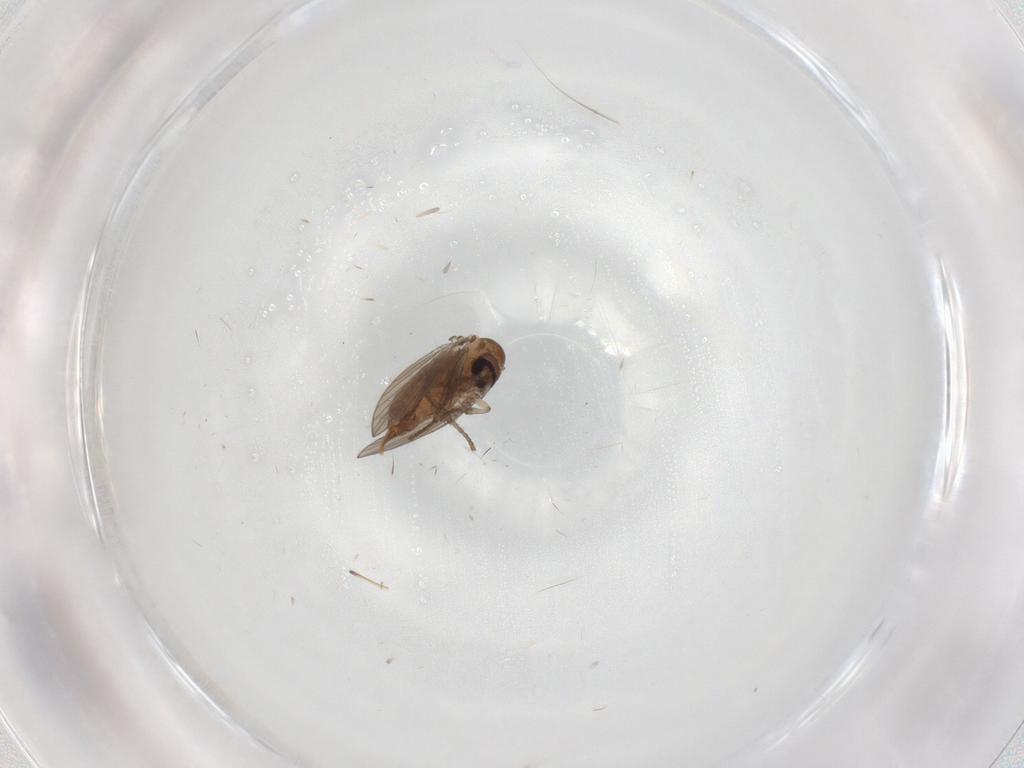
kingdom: Animalia
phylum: Arthropoda
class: Insecta
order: Diptera
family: Psychodidae
